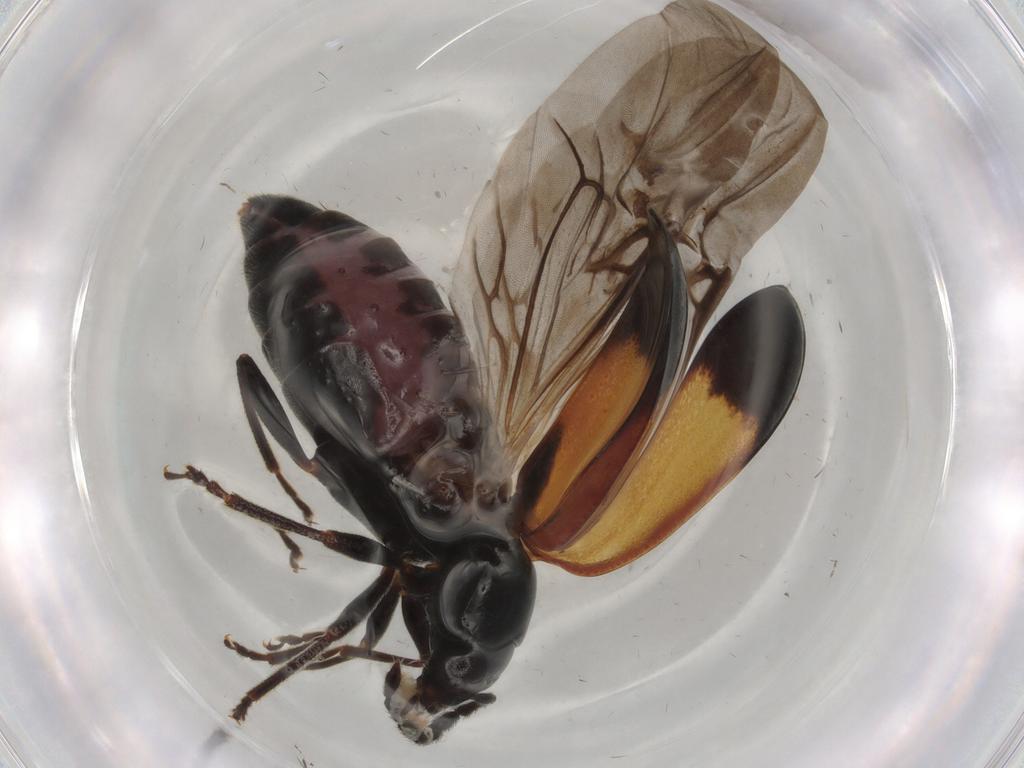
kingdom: Animalia
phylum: Arthropoda
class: Insecta
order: Coleoptera
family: Chrysomelidae
